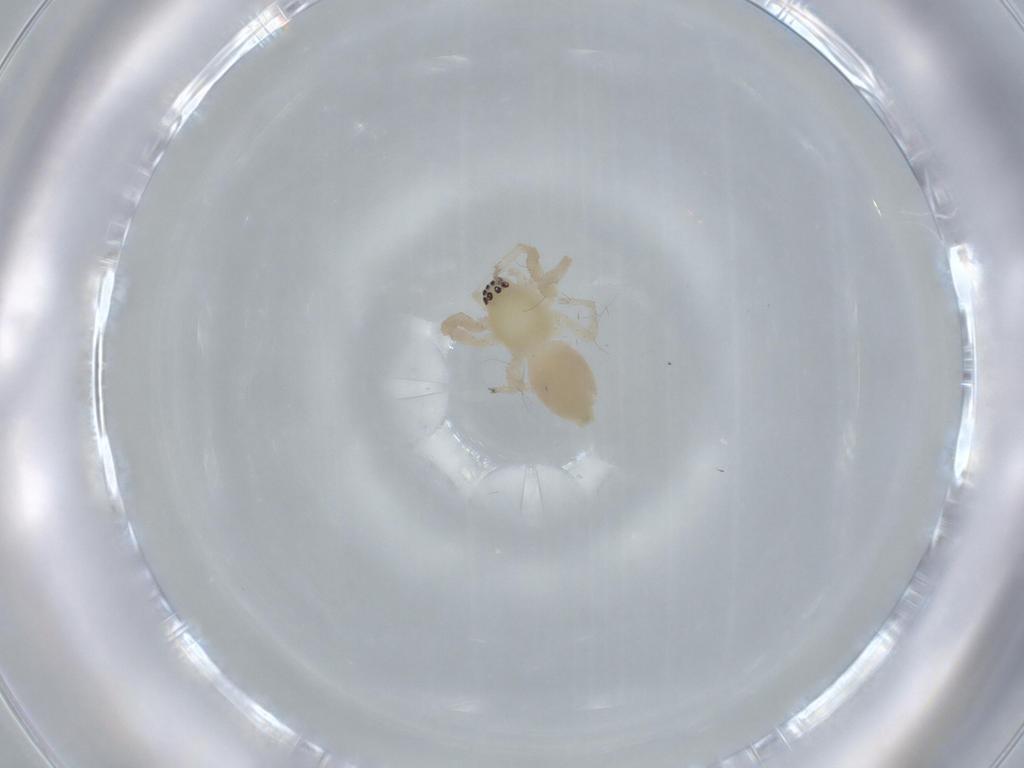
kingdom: Animalia
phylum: Arthropoda
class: Arachnida
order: Araneae
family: Anyphaenidae
